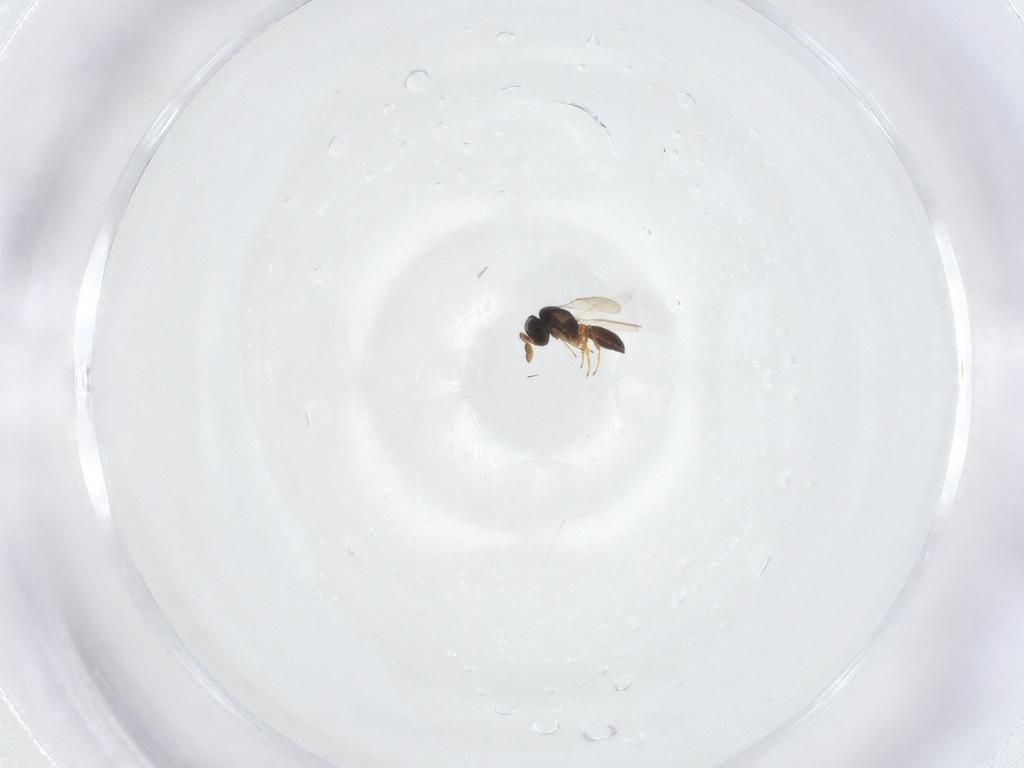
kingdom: Animalia
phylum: Arthropoda
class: Insecta
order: Hymenoptera
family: Scelionidae
